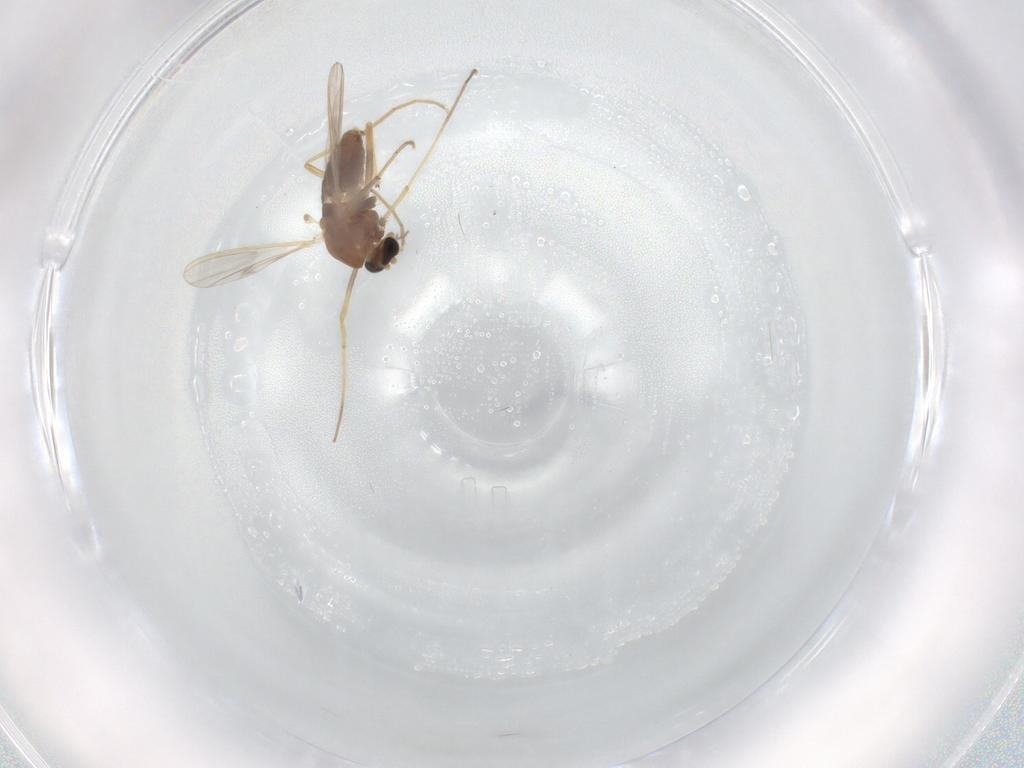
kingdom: Animalia
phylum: Arthropoda
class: Insecta
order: Diptera
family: Chironomidae
